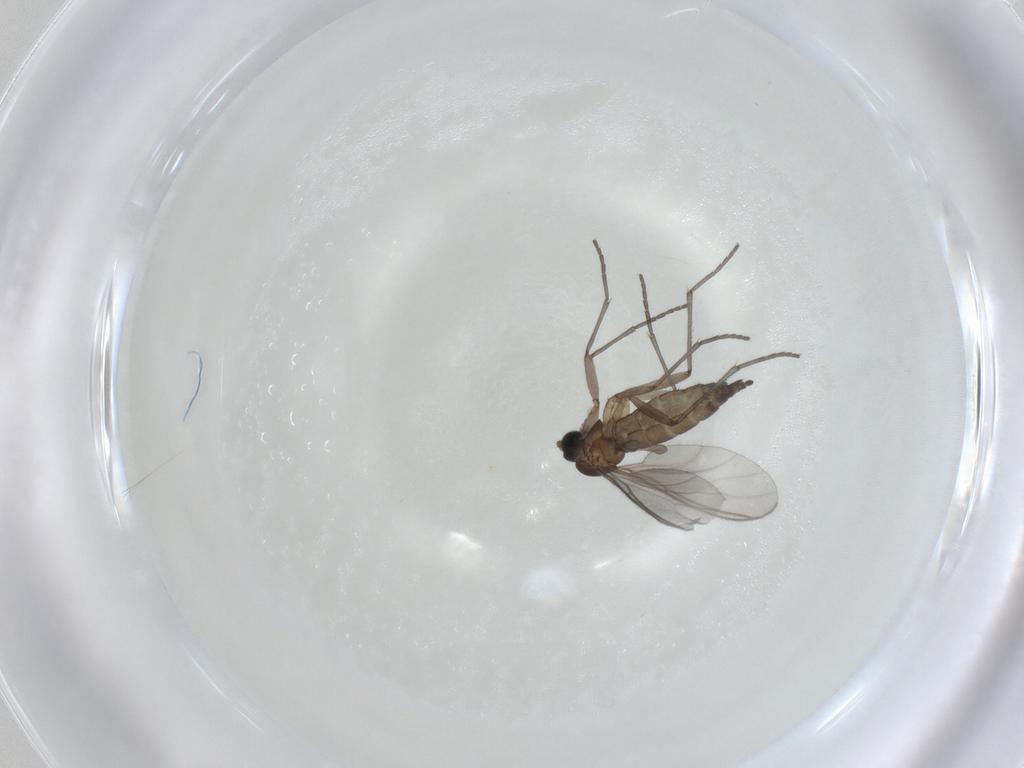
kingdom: Animalia
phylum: Arthropoda
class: Insecta
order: Diptera
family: Sciaridae
